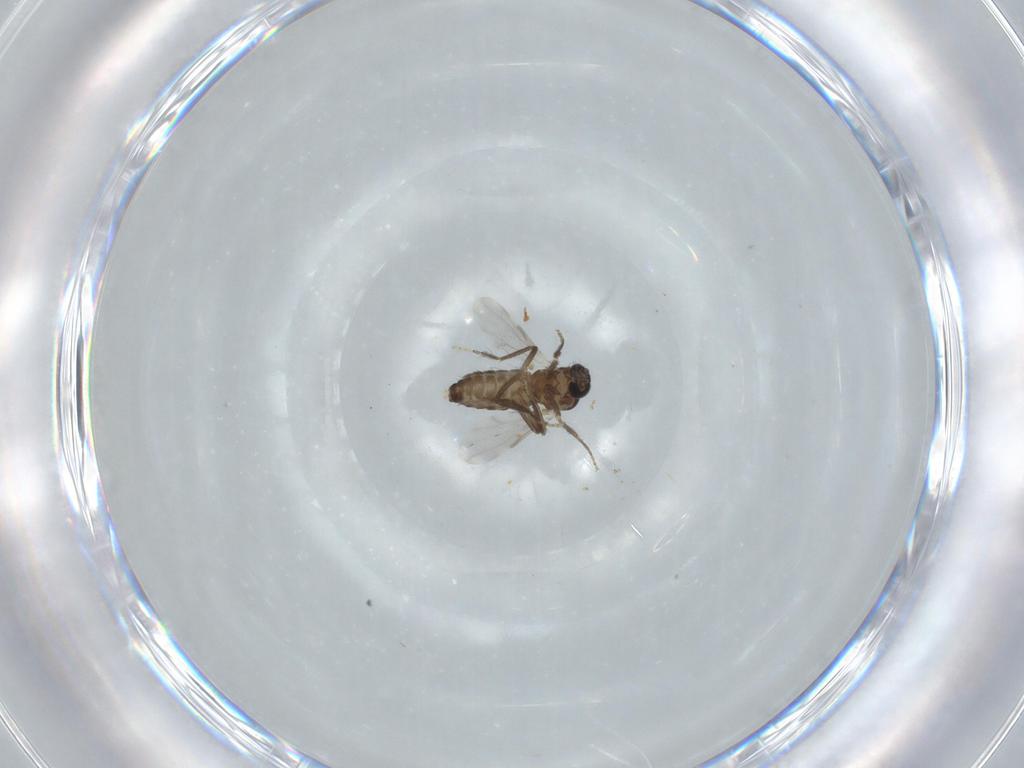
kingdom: Animalia
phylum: Arthropoda
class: Insecta
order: Diptera
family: Ceratopogonidae
